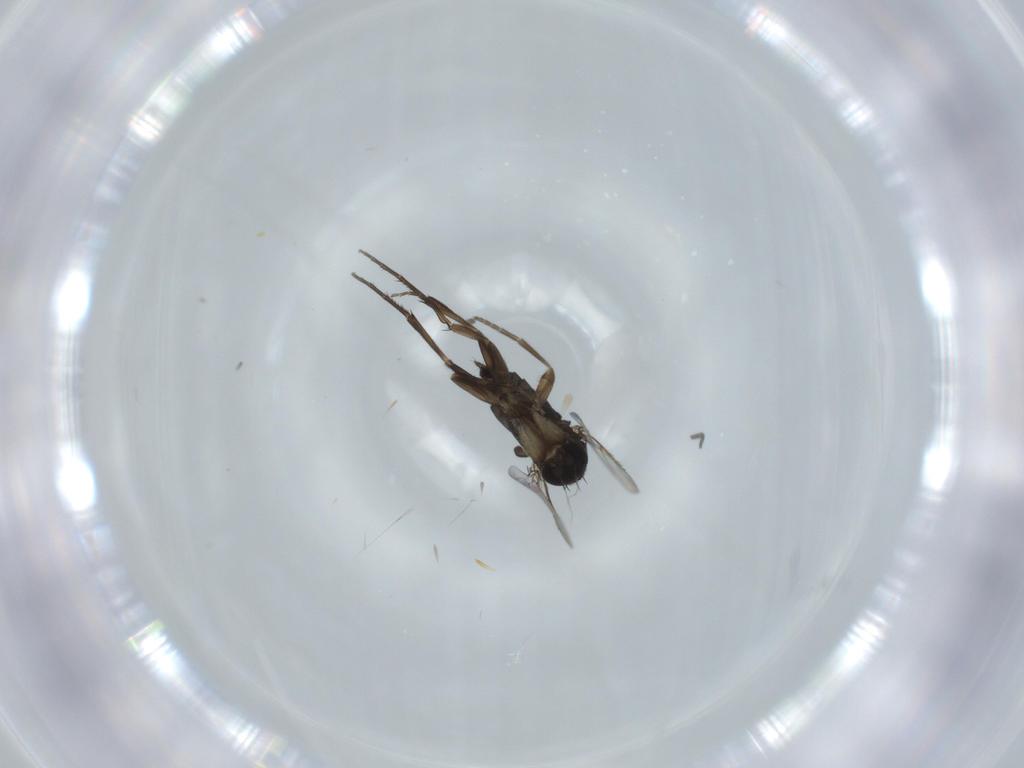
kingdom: Animalia
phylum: Arthropoda
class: Insecta
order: Diptera
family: Phoridae
